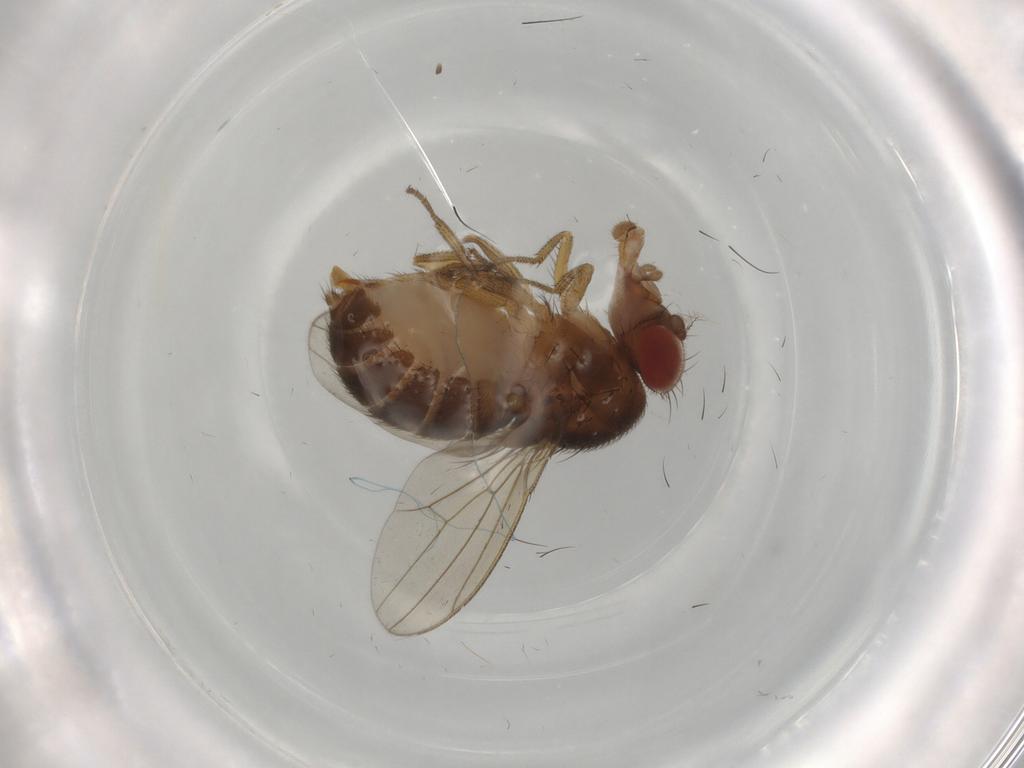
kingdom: Animalia
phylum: Arthropoda
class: Insecta
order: Diptera
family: Drosophilidae
